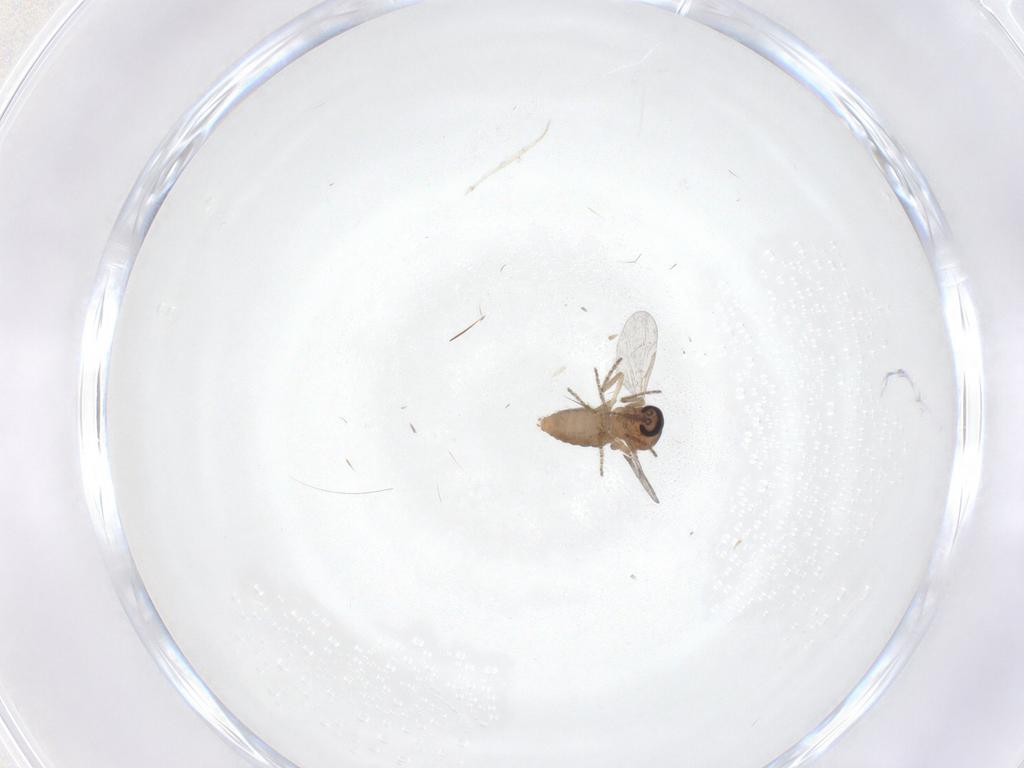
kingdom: Animalia
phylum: Arthropoda
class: Insecta
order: Diptera
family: Ceratopogonidae
